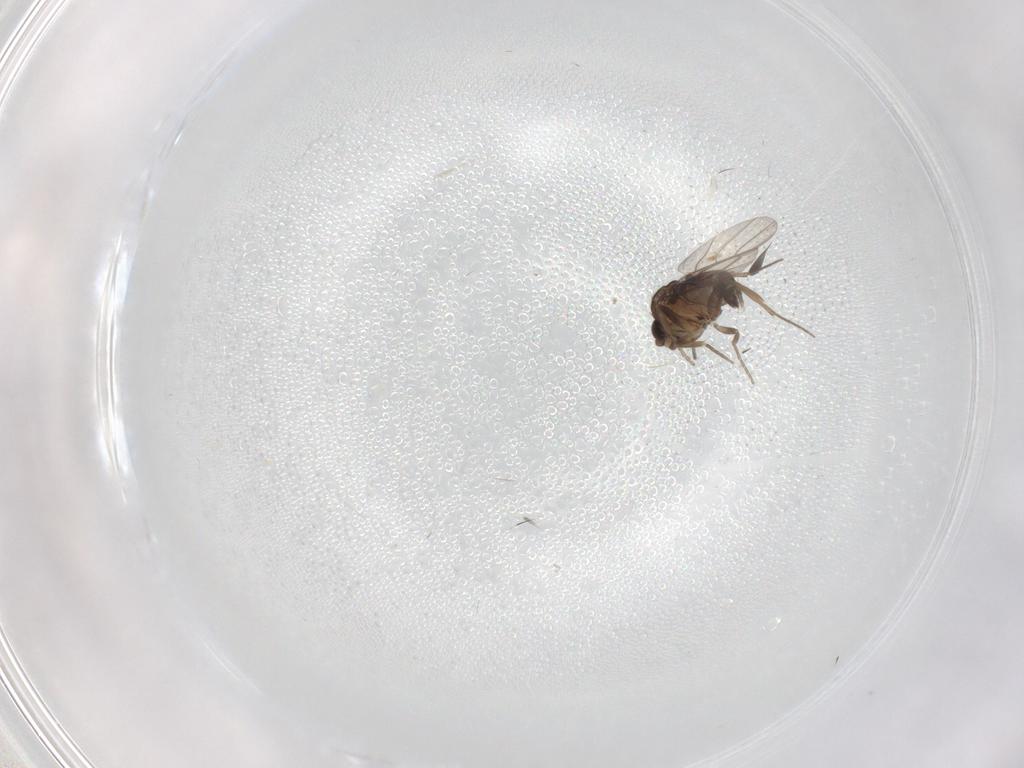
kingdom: Animalia
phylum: Arthropoda
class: Insecta
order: Diptera
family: Phoridae
